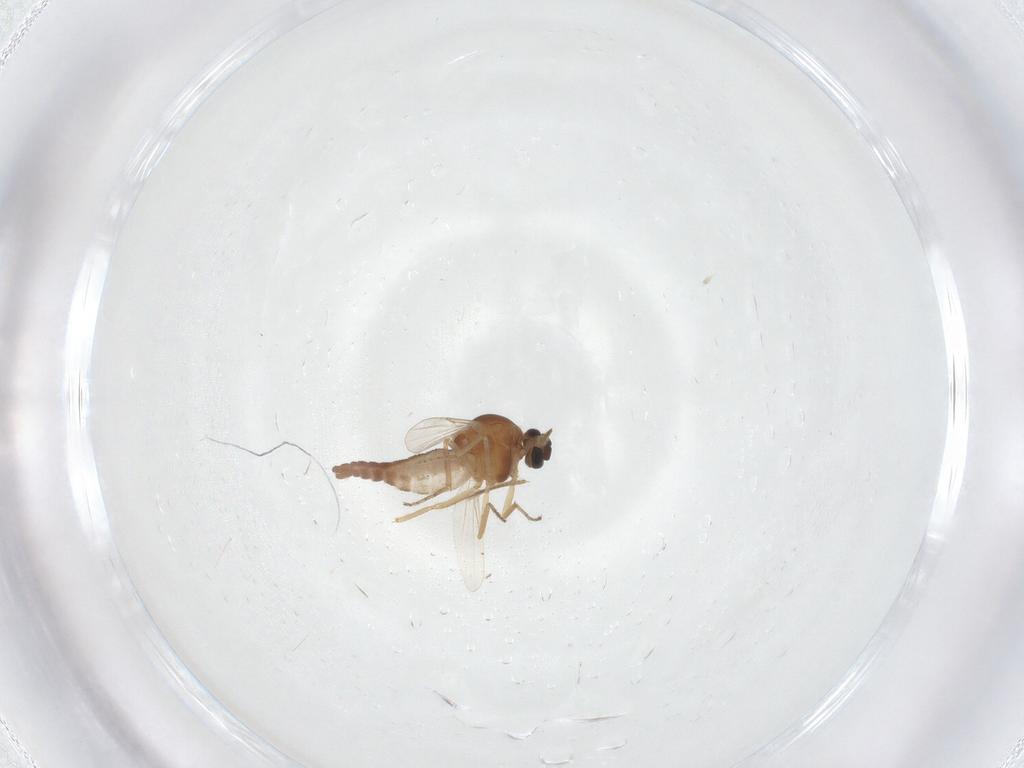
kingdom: Animalia
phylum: Arthropoda
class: Insecta
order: Diptera
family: Ceratopogonidae
